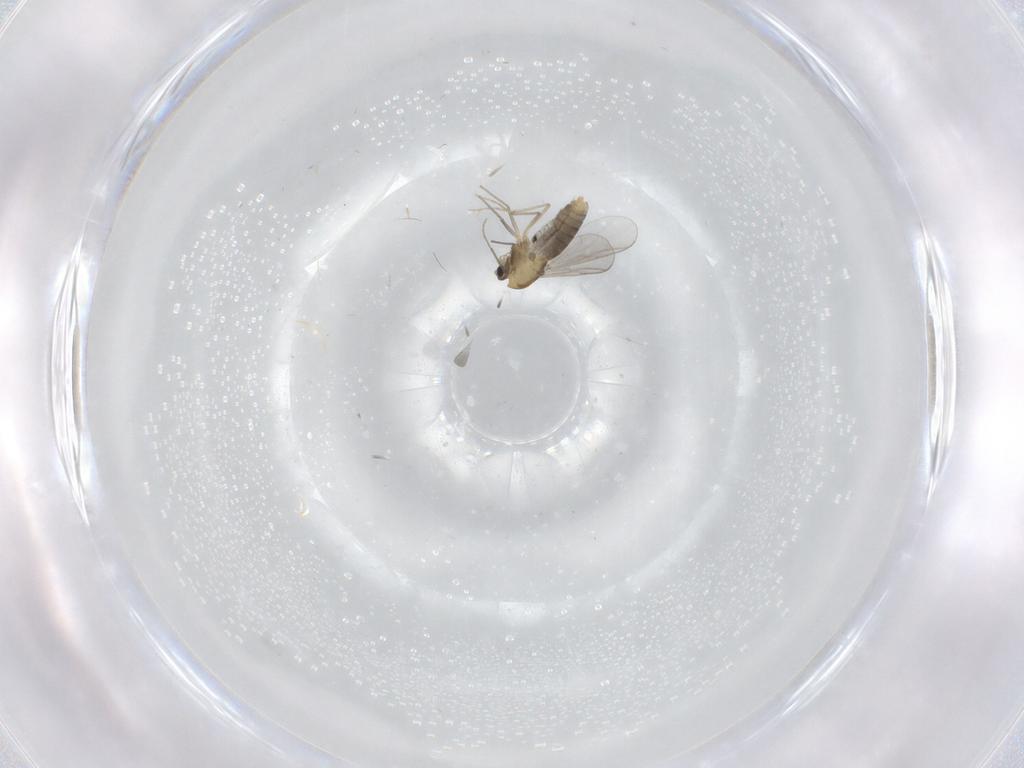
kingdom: Animalia
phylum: Arthropoda
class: Insecta
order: Diptera
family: Chironomidae
